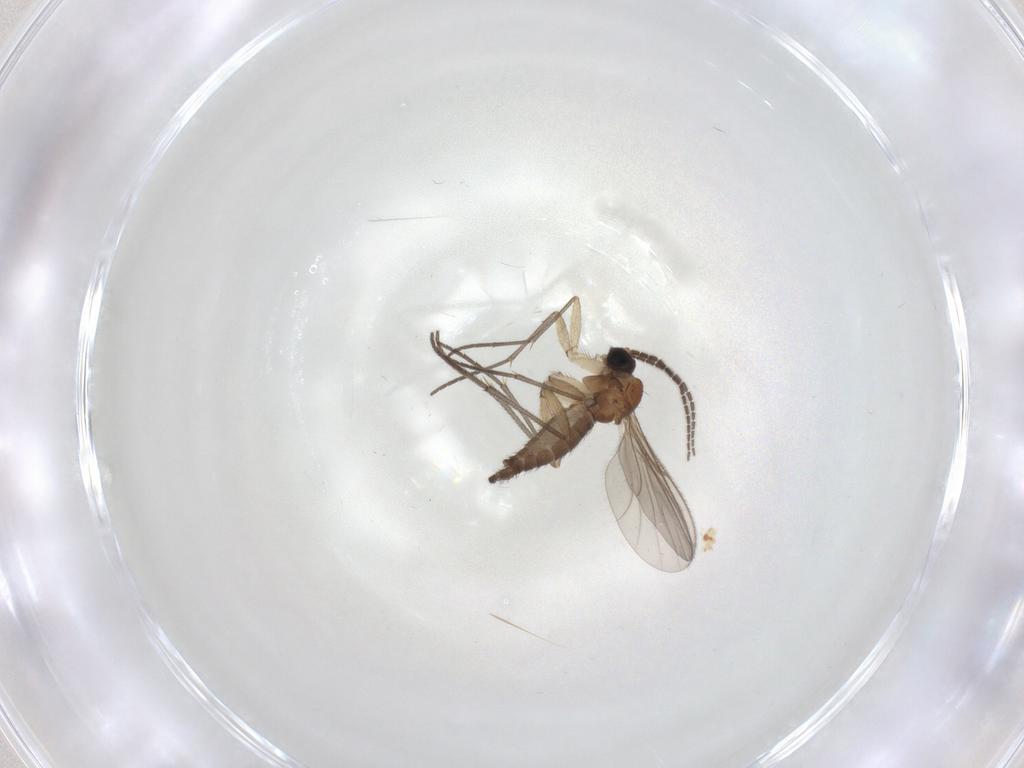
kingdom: Animalia
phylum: Arthropoda
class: Insecta
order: Diptera
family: Sciaridae
